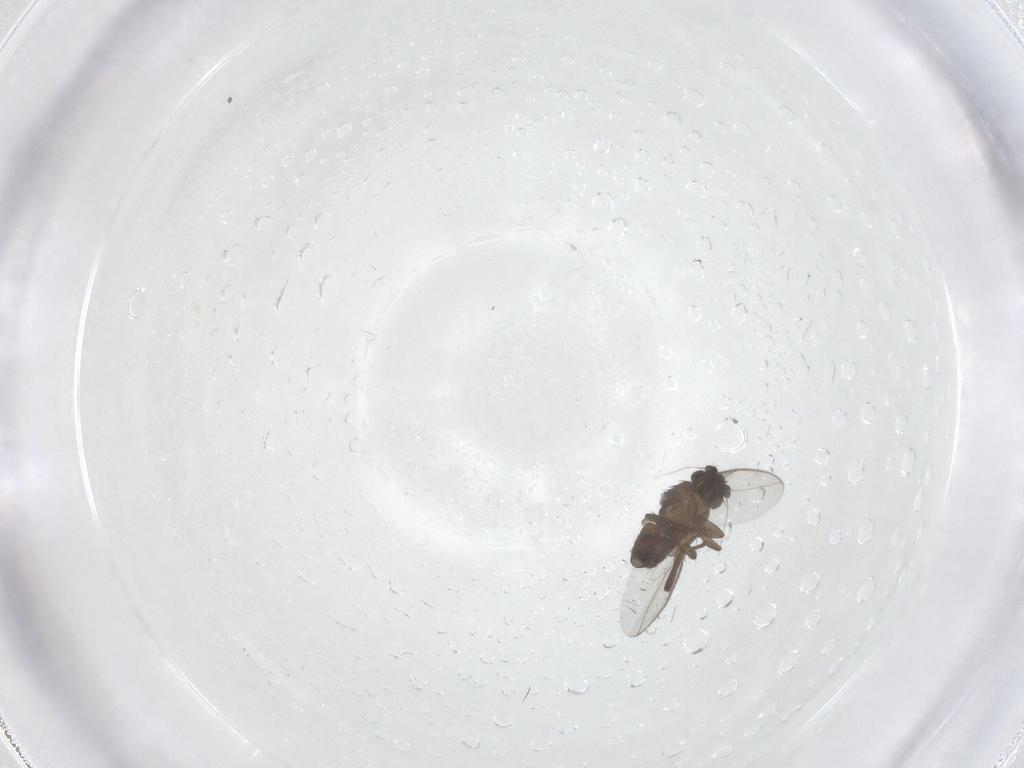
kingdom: Animalia
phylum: Arthropoda
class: Insecta
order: Diptera
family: Sphaeroceridae
